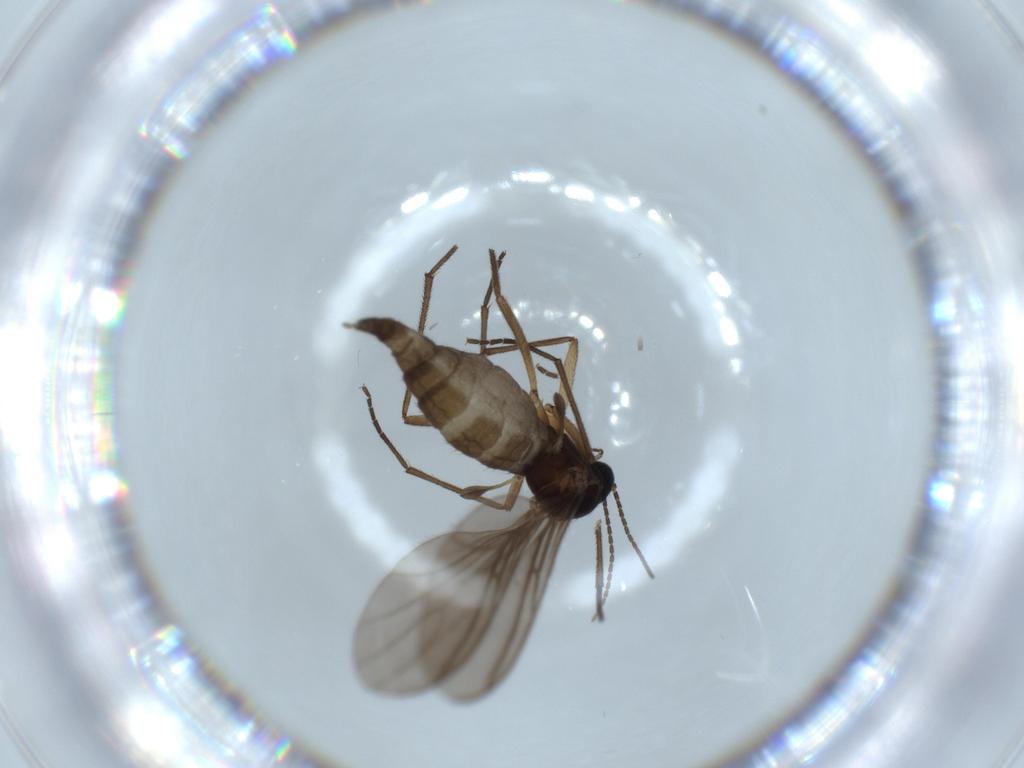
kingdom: Animalia
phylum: Arthropoda
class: Insecta
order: Diptera
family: Sciaridae
